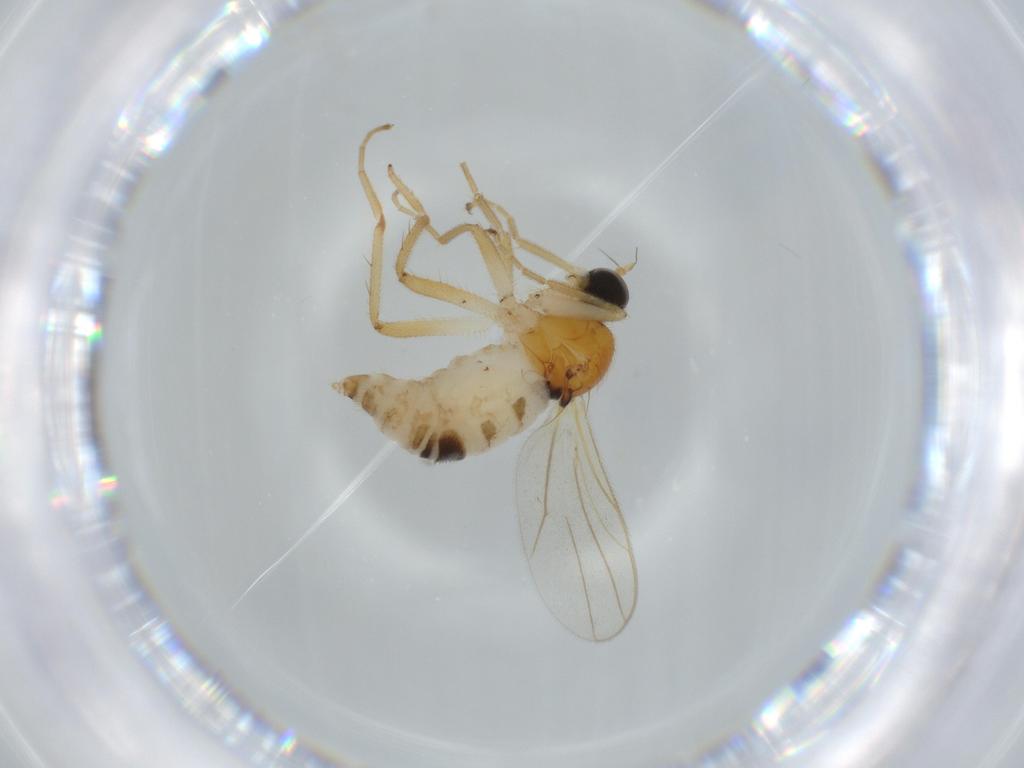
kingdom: Animalia
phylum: Arthropoda
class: Insecta
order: Diptera
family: Hybotidae
